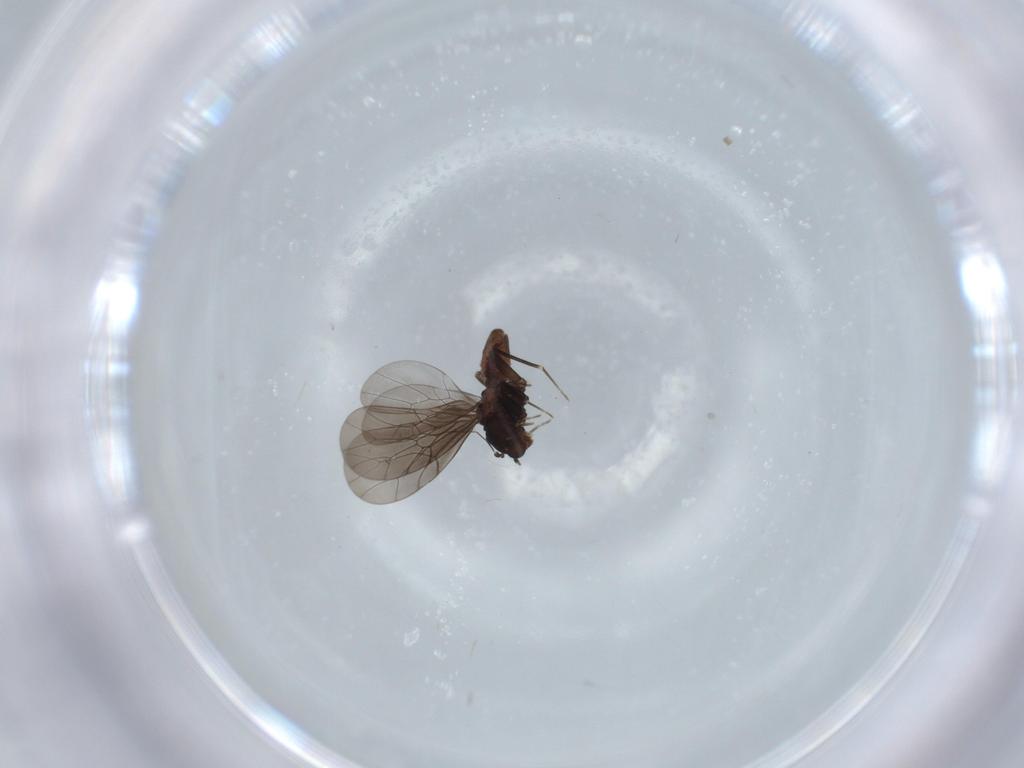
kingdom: Animalia
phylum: Arthropoda
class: Insecta
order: Psocodea
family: Lepidopsocidae
